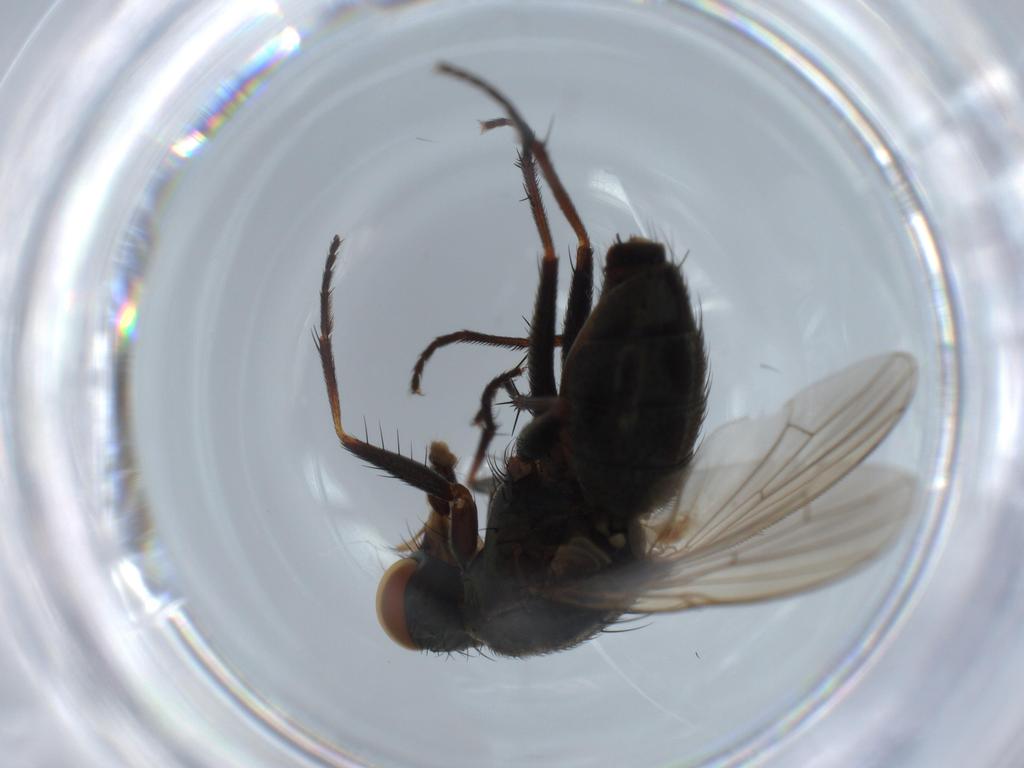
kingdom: Animalia
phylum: Arthropoda
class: Insecta
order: Diptera
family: Muscidae
